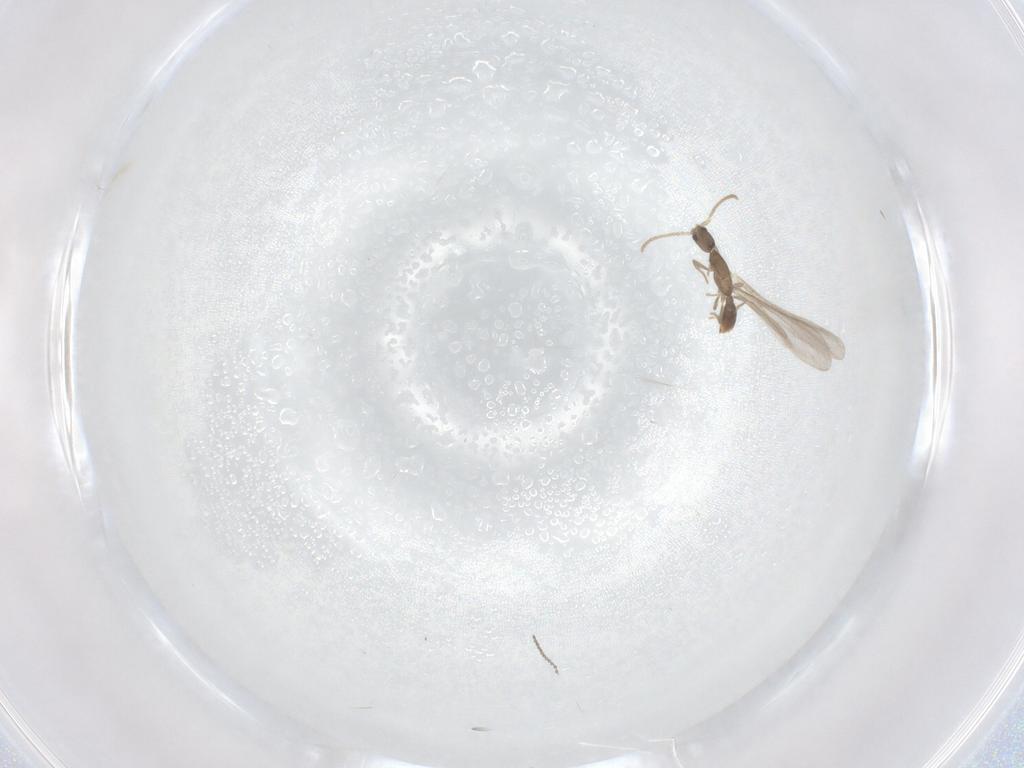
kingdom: Animalia
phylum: Arthropoda
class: Insecta
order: Hymenoptera
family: Formicidae
